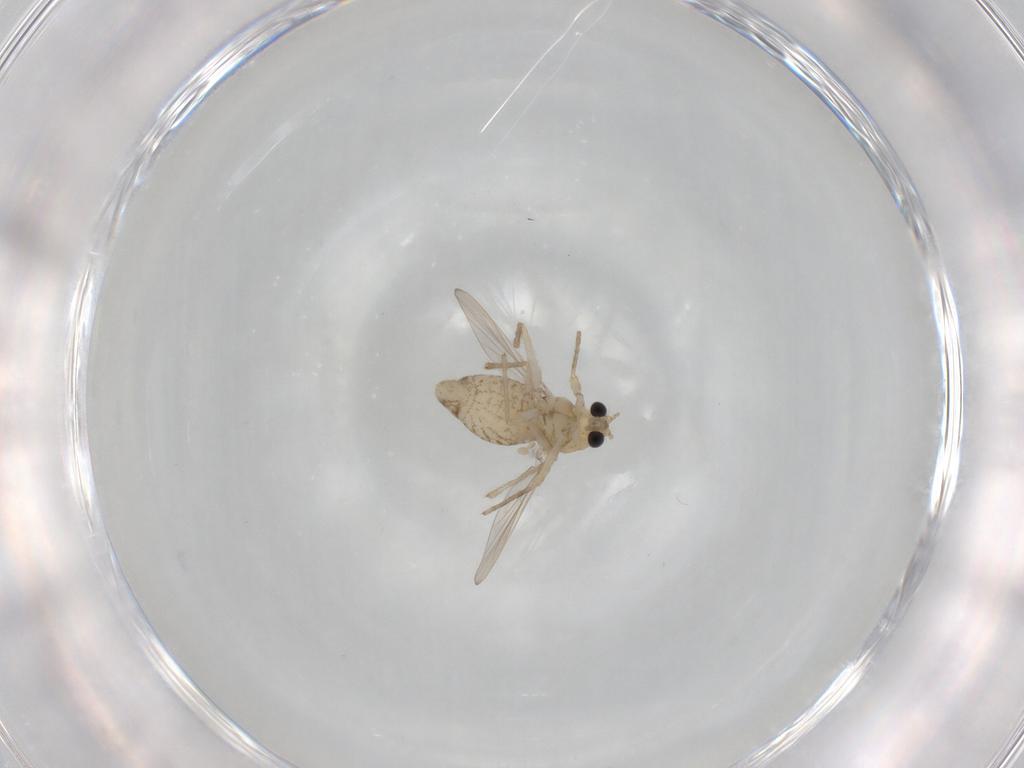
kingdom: Animalia
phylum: Arthropoda
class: Insecta
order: Diptera
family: Chironomidae
